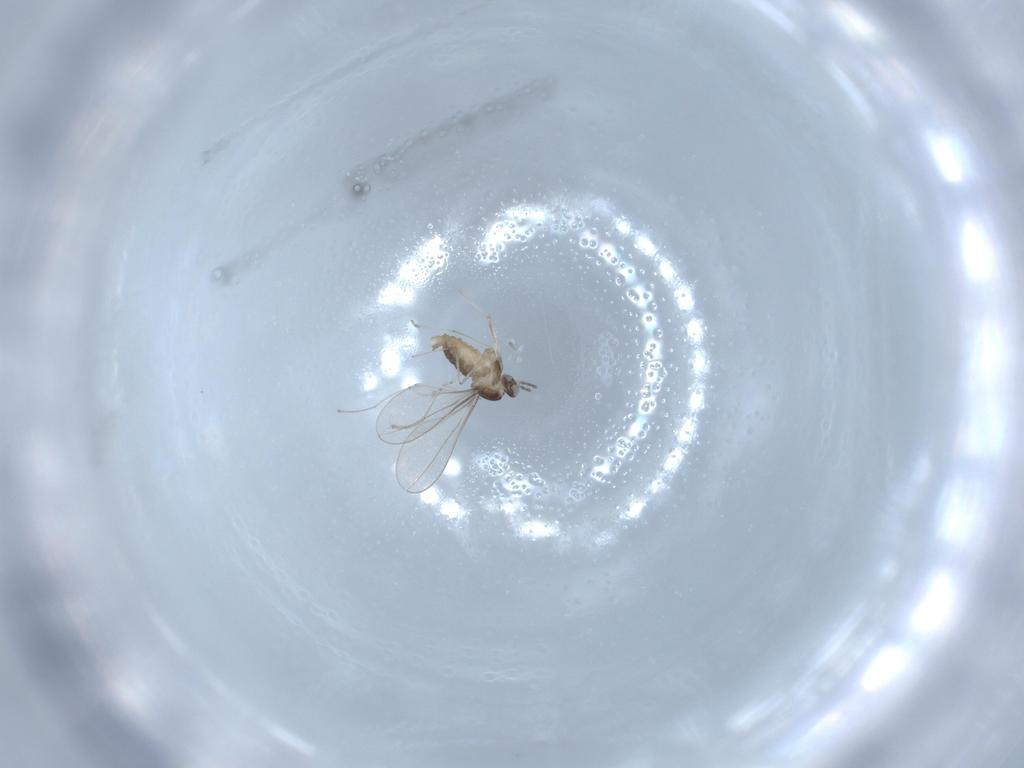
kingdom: Animalia
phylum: Arthropoda
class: Insecta
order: Diptera
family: Cecidomyiidae
